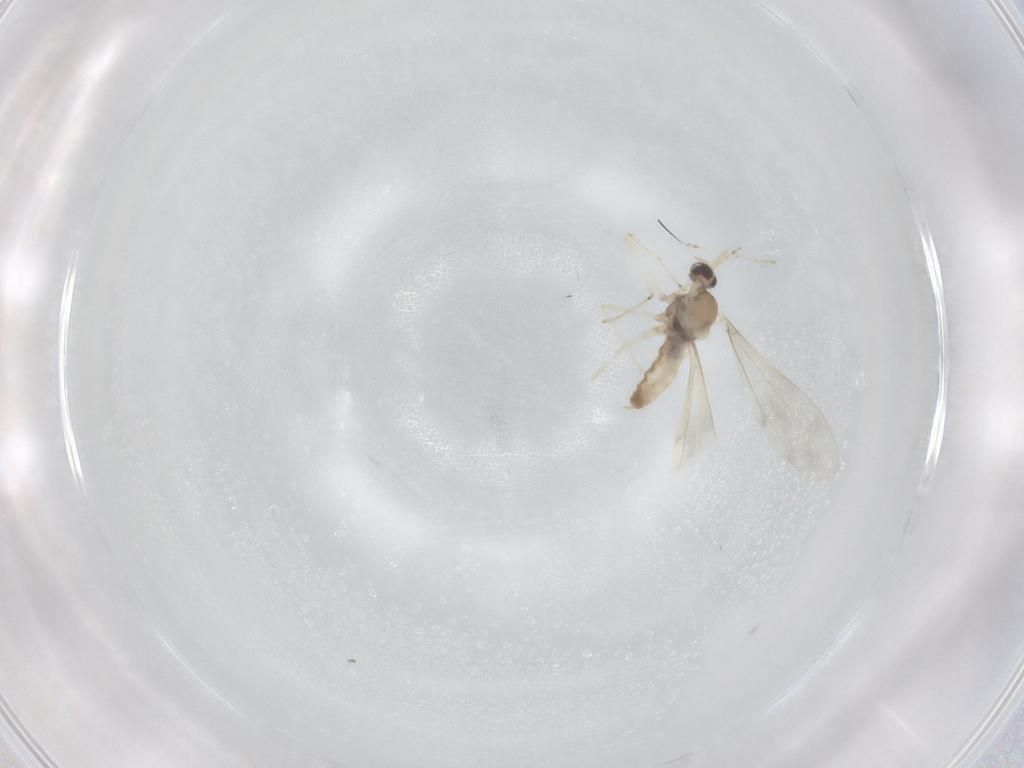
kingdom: Animalia
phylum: Arthropoda
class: Insecta
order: Diptera
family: Cecidomyiidae
